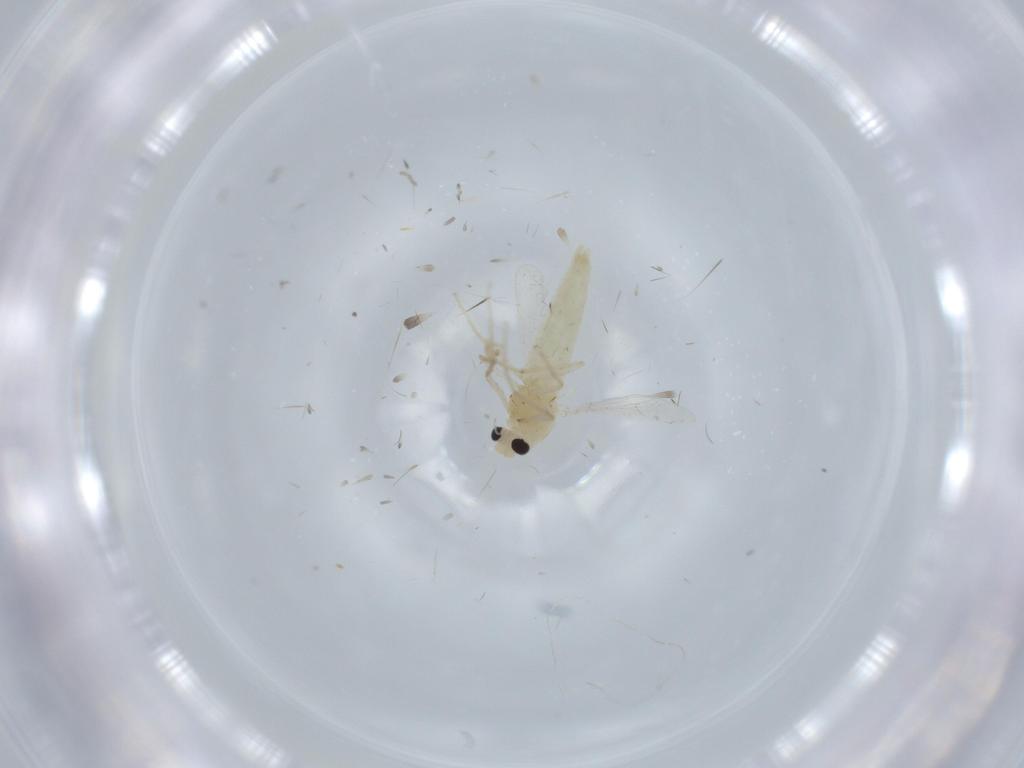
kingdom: Animalia
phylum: Arthropoda
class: Insecta
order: Diptera
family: Chironomidae
